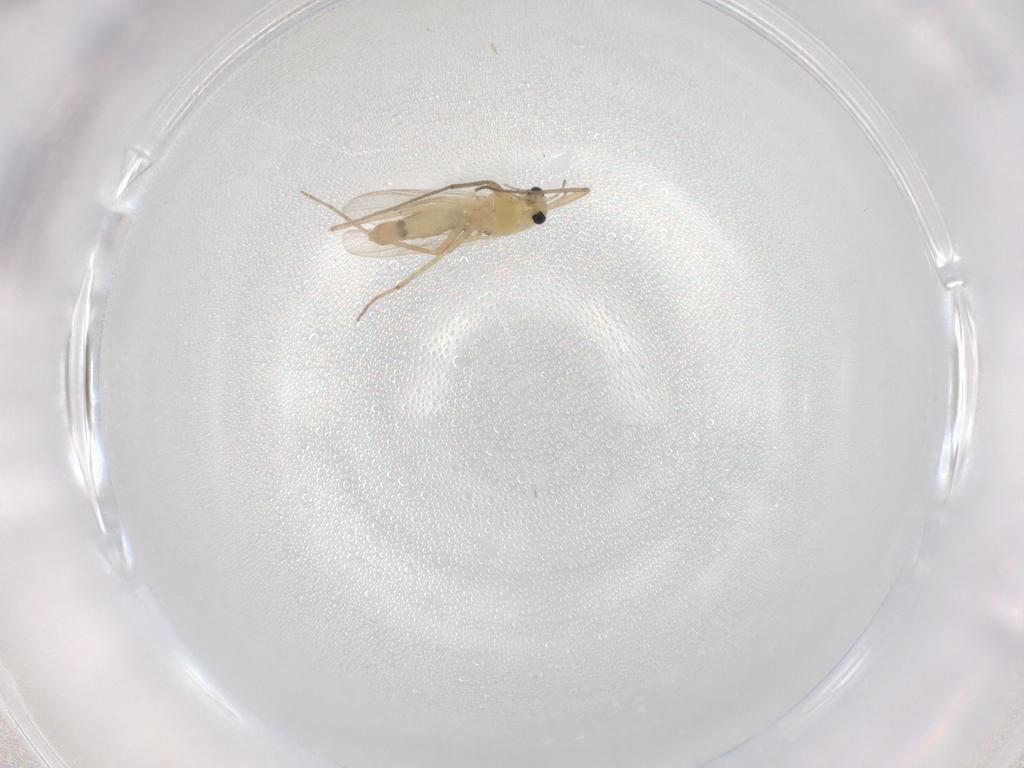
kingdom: Animalia
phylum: Arthropoda
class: Insecta
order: Diptera
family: Chironomidae
